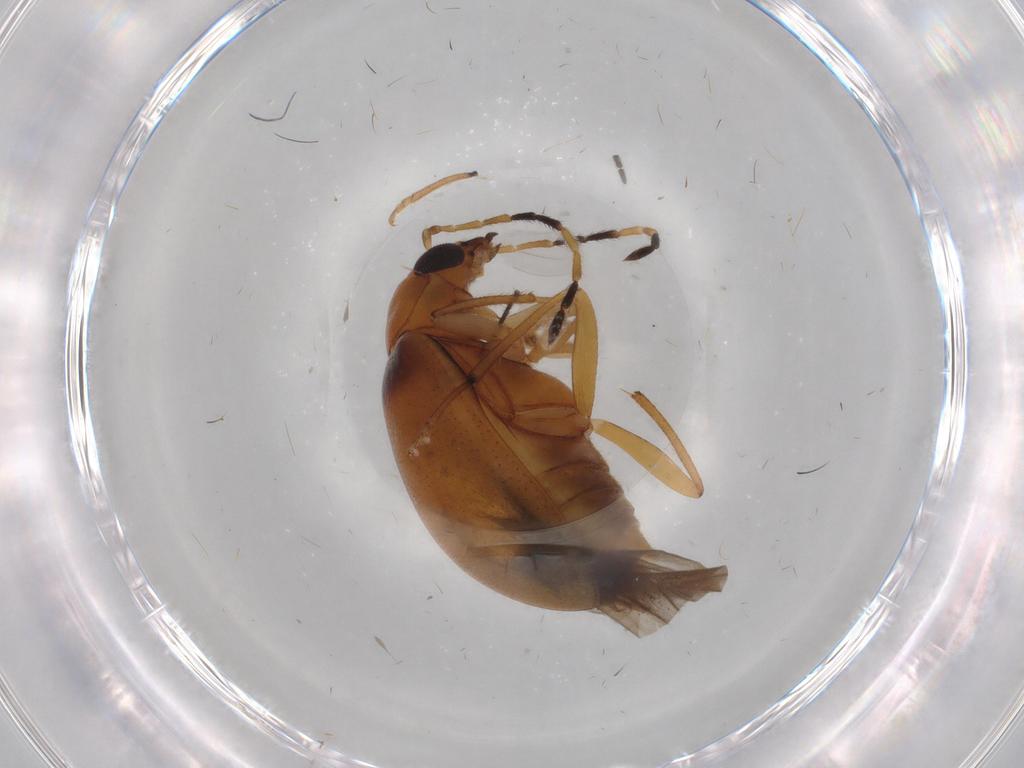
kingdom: Animalia
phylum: Arthropoda
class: Insecta
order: Coleoptera
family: Chrysomelidae
